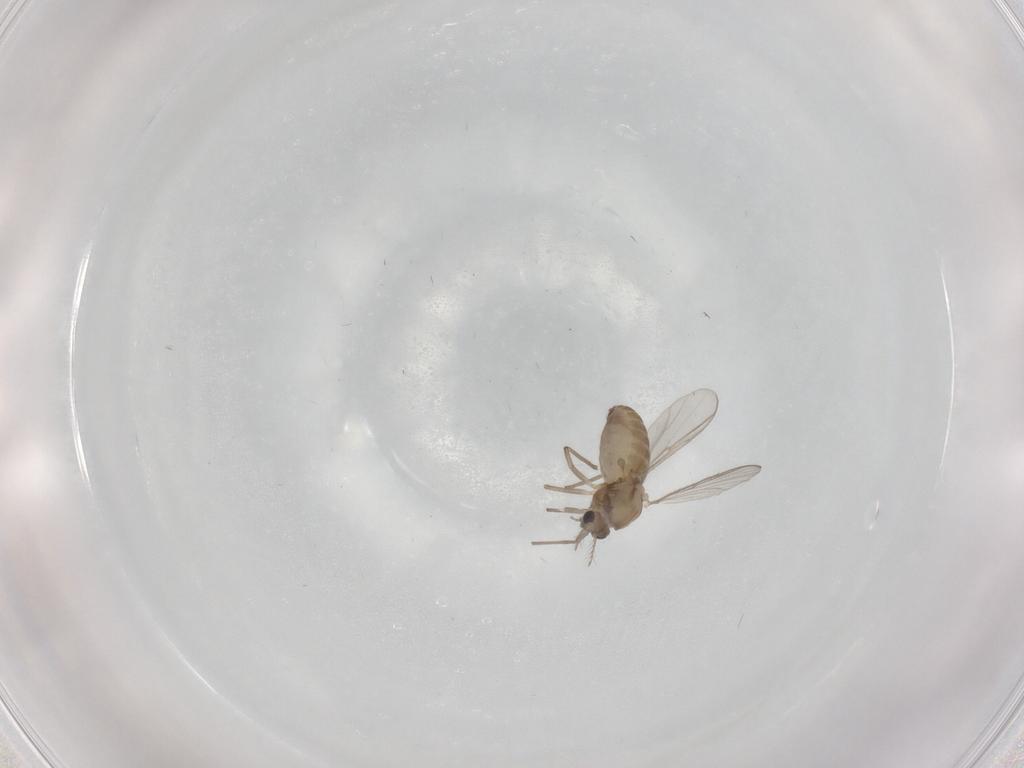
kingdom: Animalia
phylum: Arthropoda
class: Insecta
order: Diptera
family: Chironomidae
